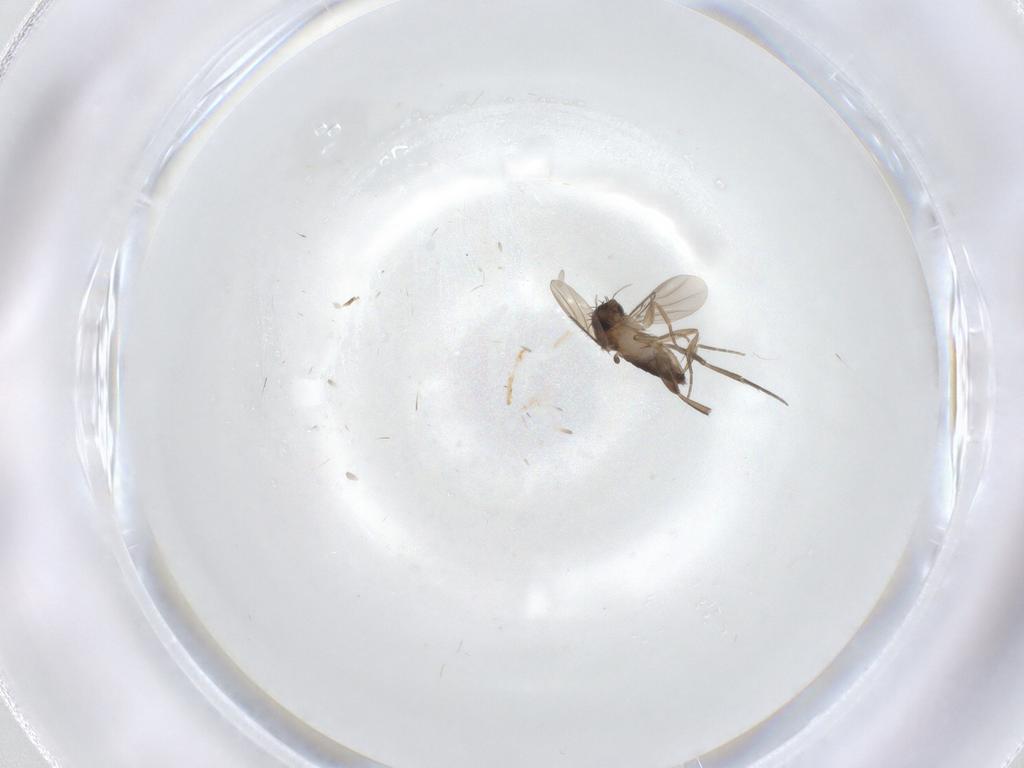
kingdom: Animalia
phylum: Arthropoda
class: Insecta
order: Diptera
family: Phoridae
